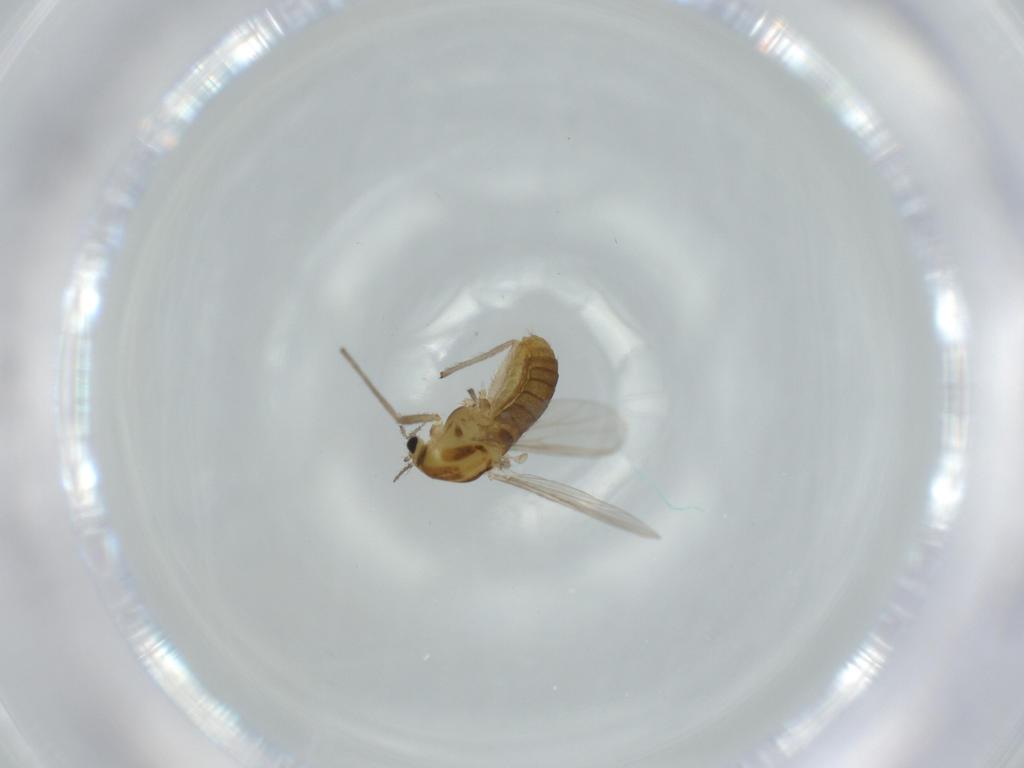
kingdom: Animalia
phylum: Arthropoda
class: Insecta
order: Diptera
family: Chironomidae
